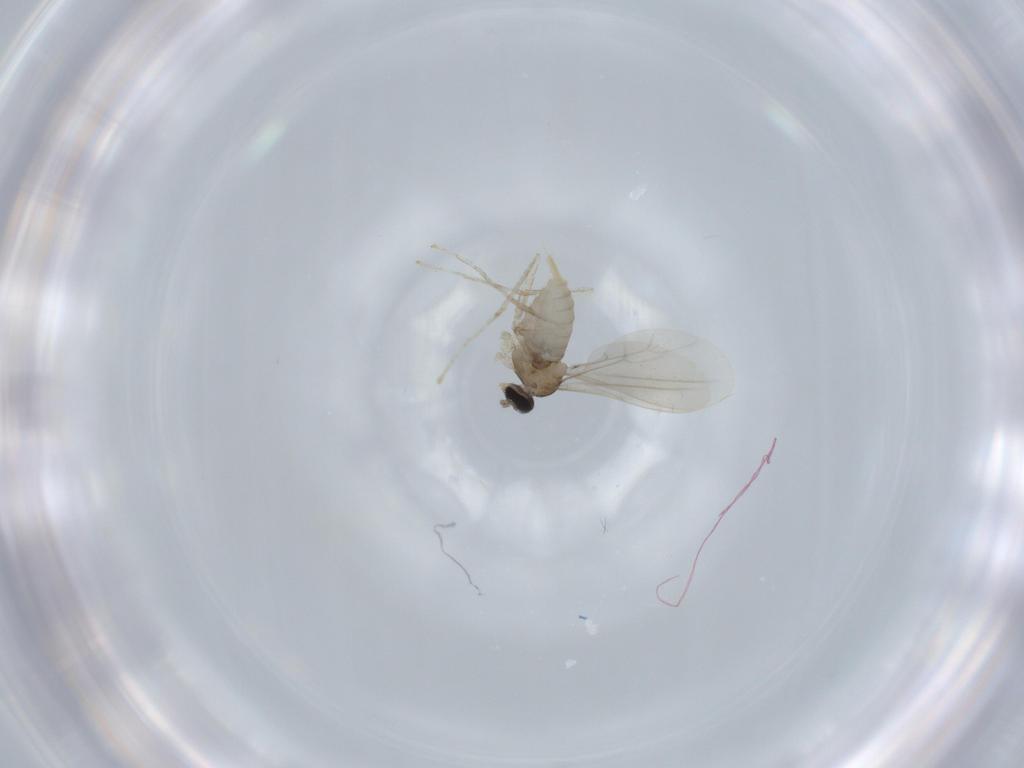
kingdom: Animalia
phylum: Arthropoda
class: Insecta
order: Diptera
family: Cecidomyiidae
